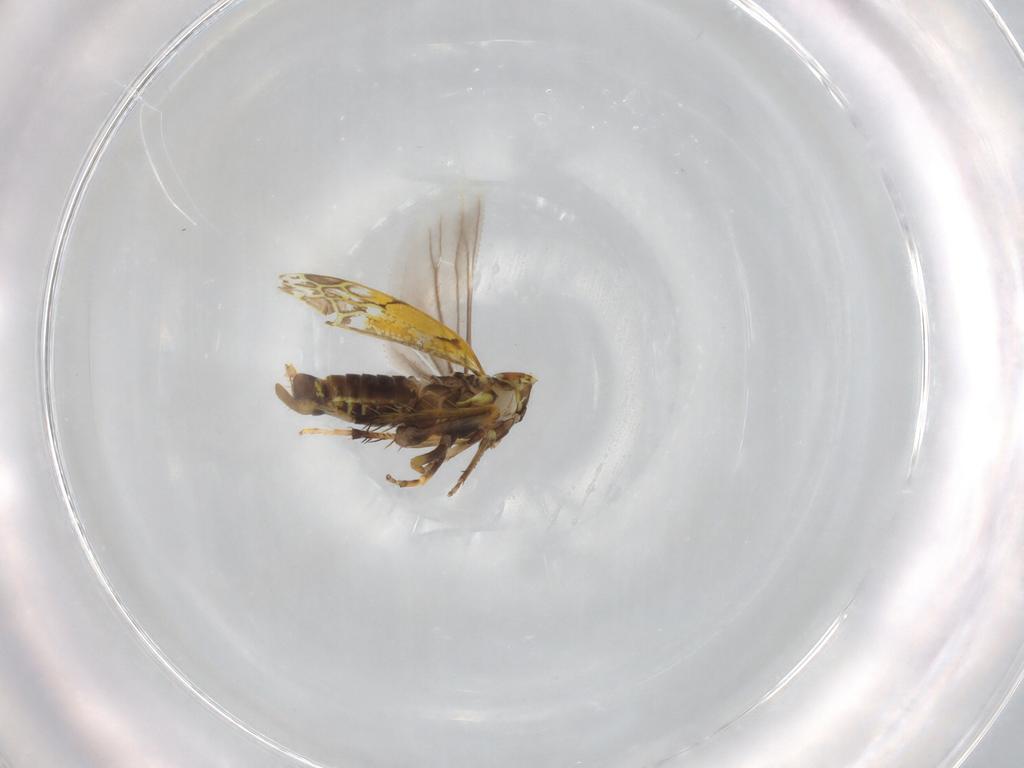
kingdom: Animalia
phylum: Arthropoda
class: Insecta
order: Hemiptera
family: Cicadellidae
